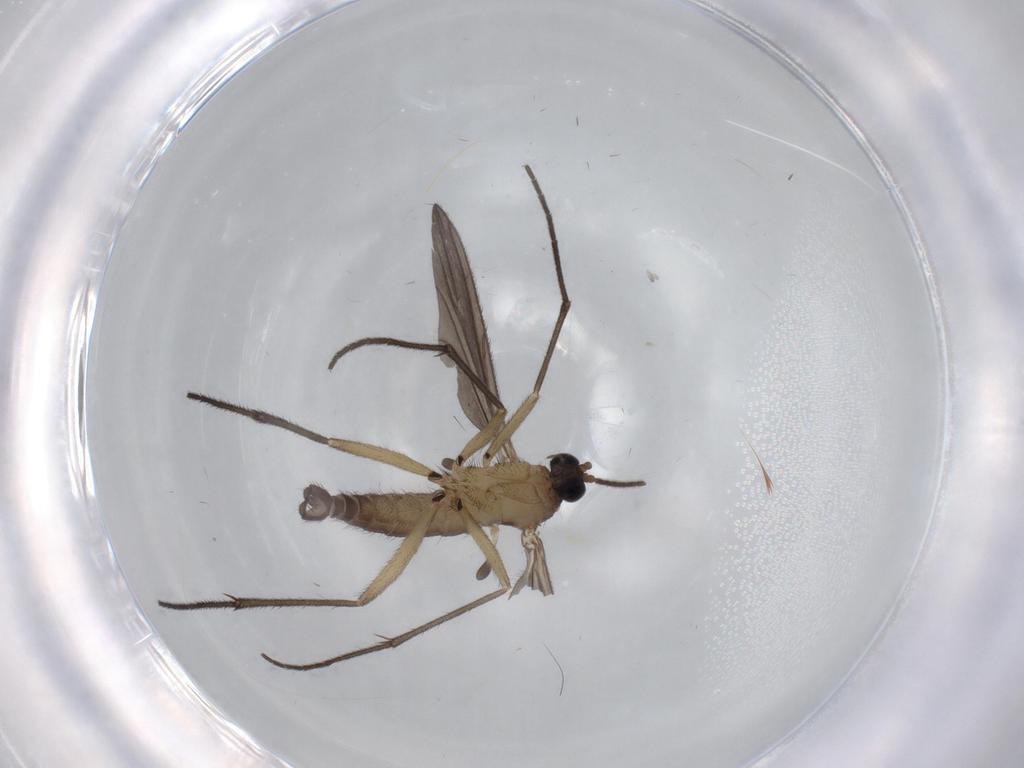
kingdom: Animalia
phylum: Arthropoda
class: Insecta
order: Diptera
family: Sciaridae
